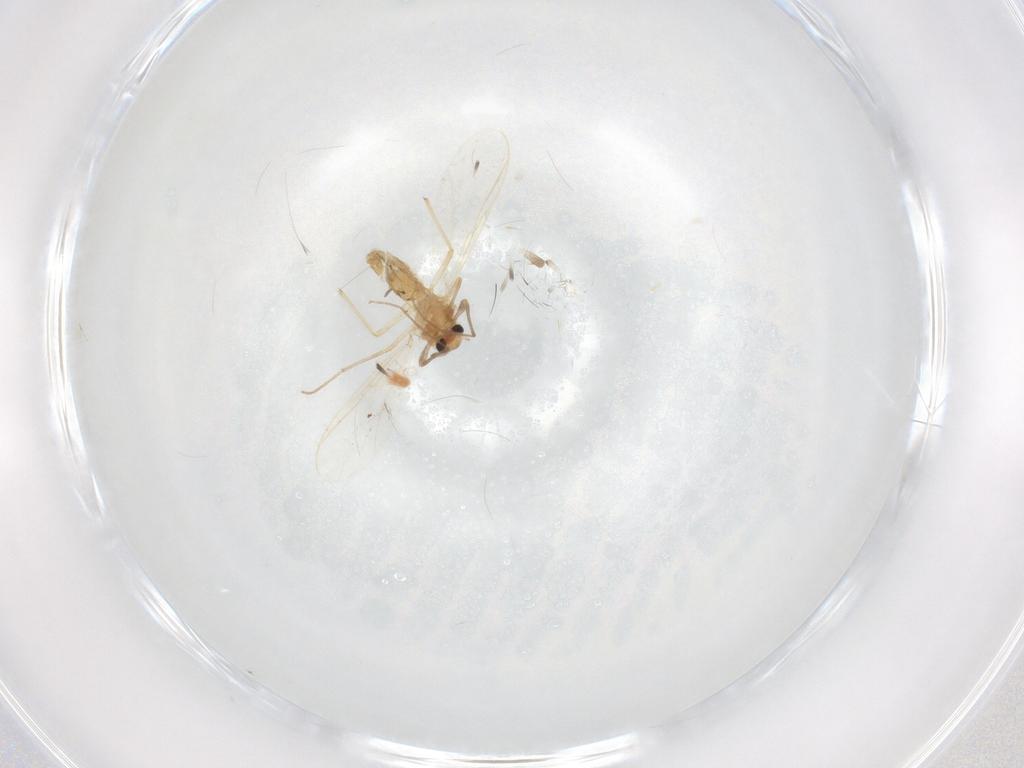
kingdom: Animalia
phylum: Arthropoda
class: Insecta
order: Diptera
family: Chironomidae
